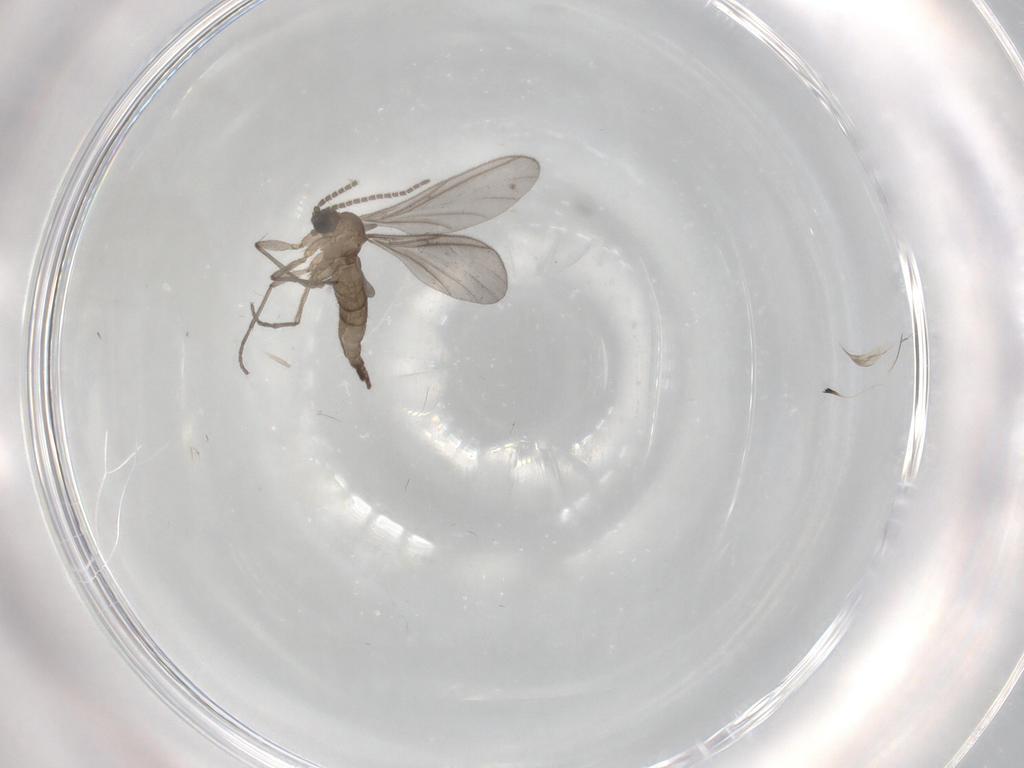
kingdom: Animalia
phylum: Arthropoda
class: Insecta
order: Diptera
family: Sciaridae
